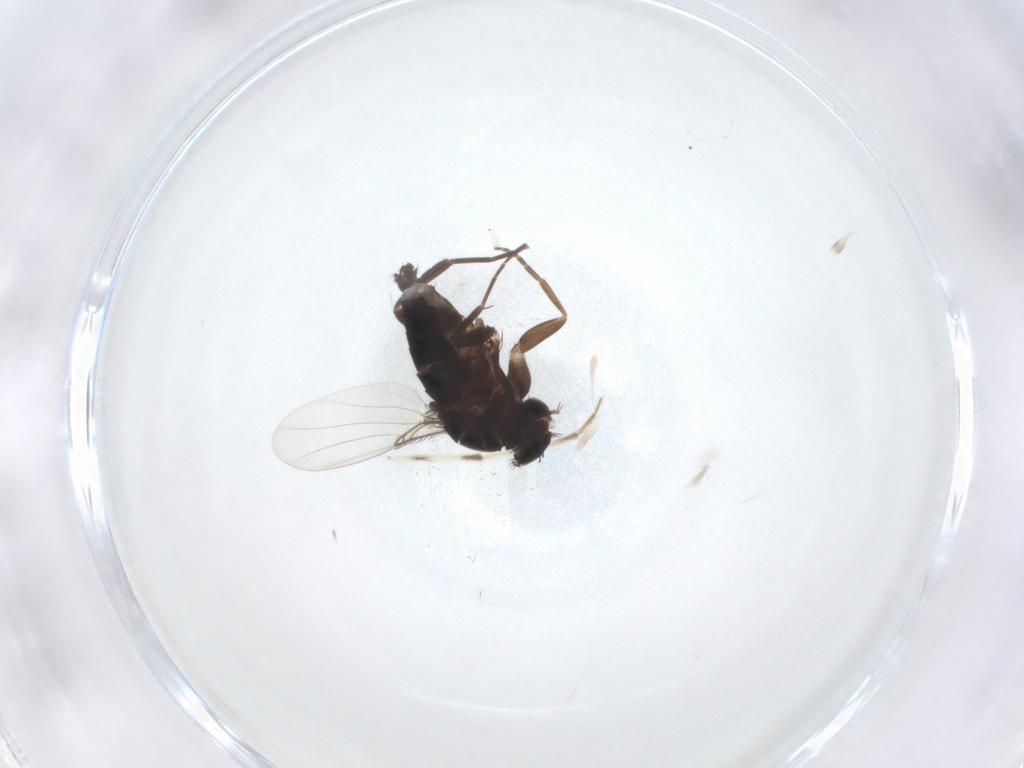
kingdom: Animalia
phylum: Arthropoda
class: Insecta
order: Diptera
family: Phoridae
